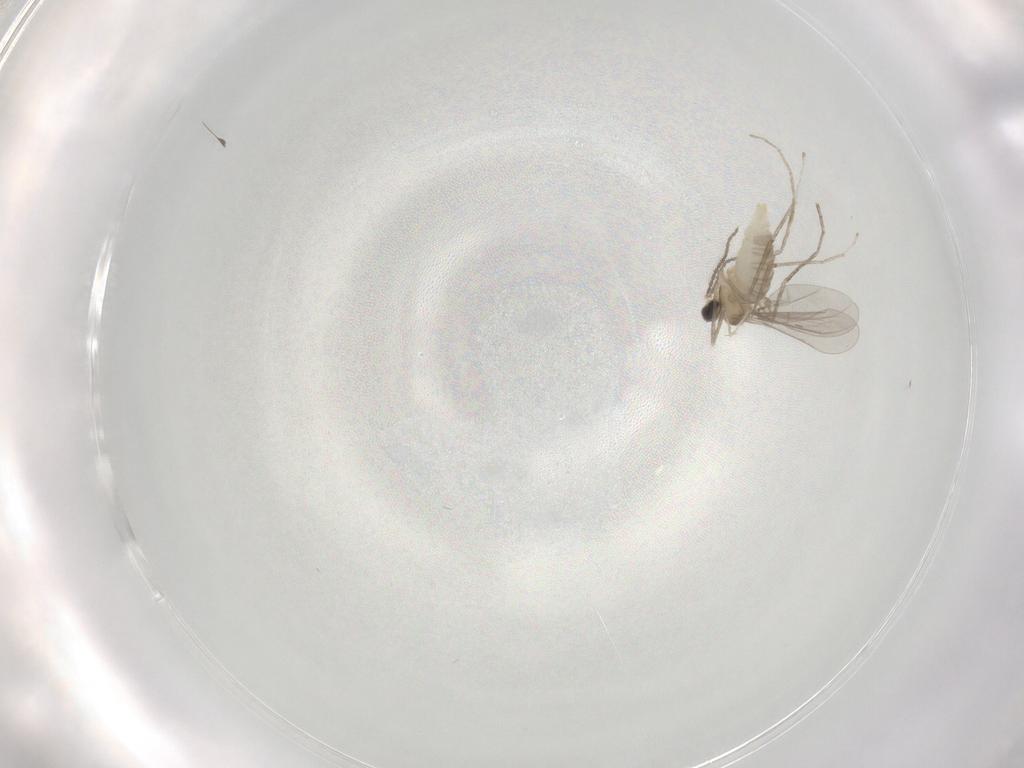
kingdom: Animalia
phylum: Arthropoda
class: Insecta
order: Diptera
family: Cecidomyiidae
